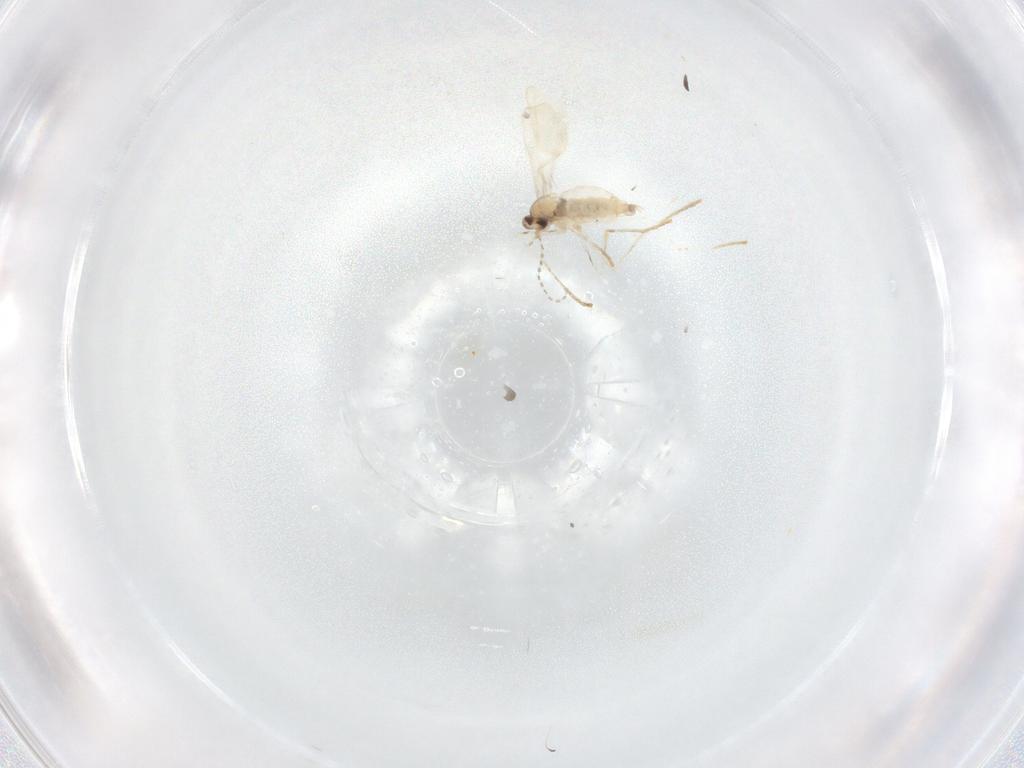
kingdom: Animalia
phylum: Arthropoda
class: Insecta
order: Diptera
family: Cecidomyiidae
